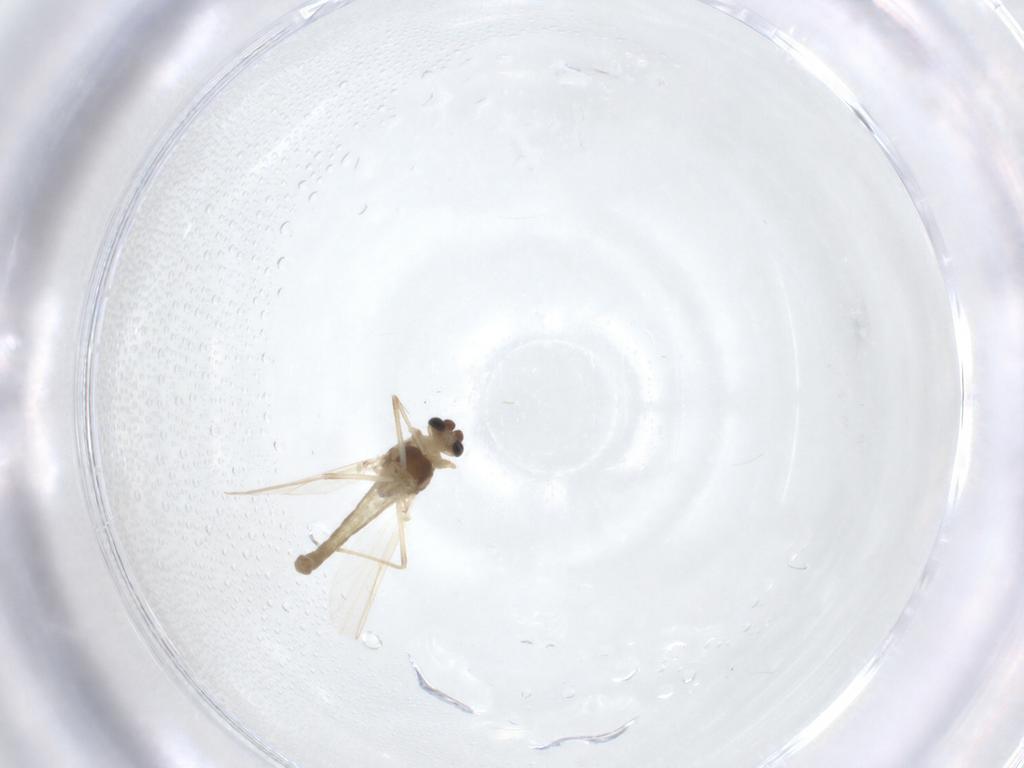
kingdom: Animalia
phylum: Arthropoda
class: Insecta
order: Diptera
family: Chironomidae
